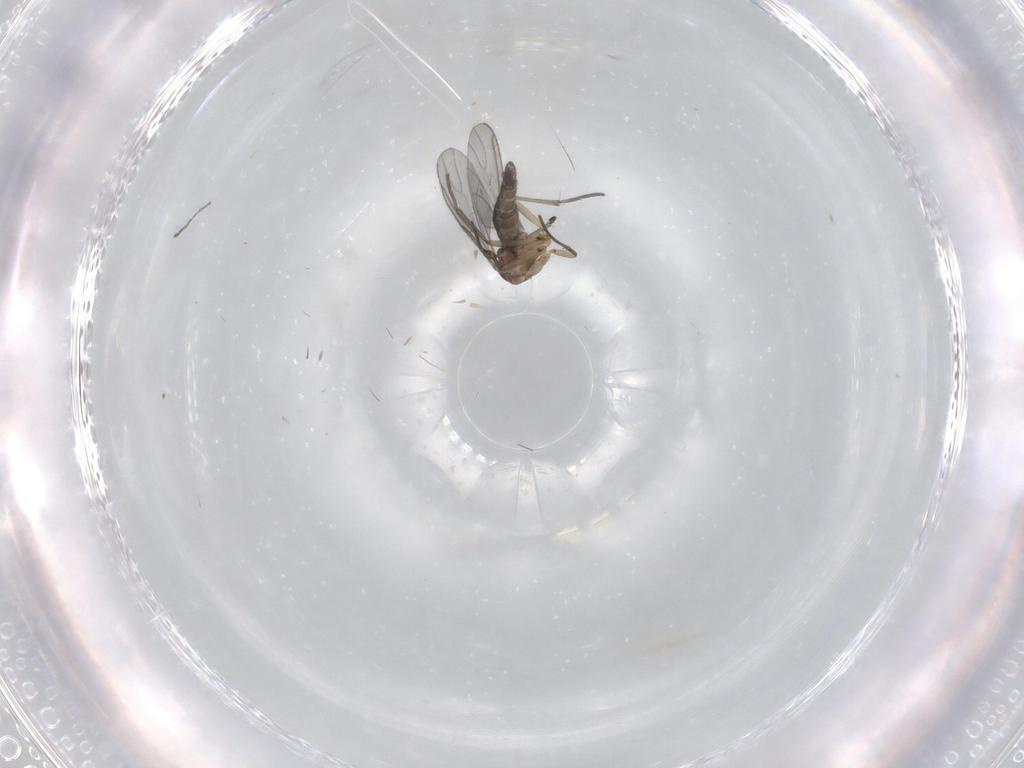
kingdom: Animalia
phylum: Arthropoda
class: Insecta
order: Diptera
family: Sciaridae
